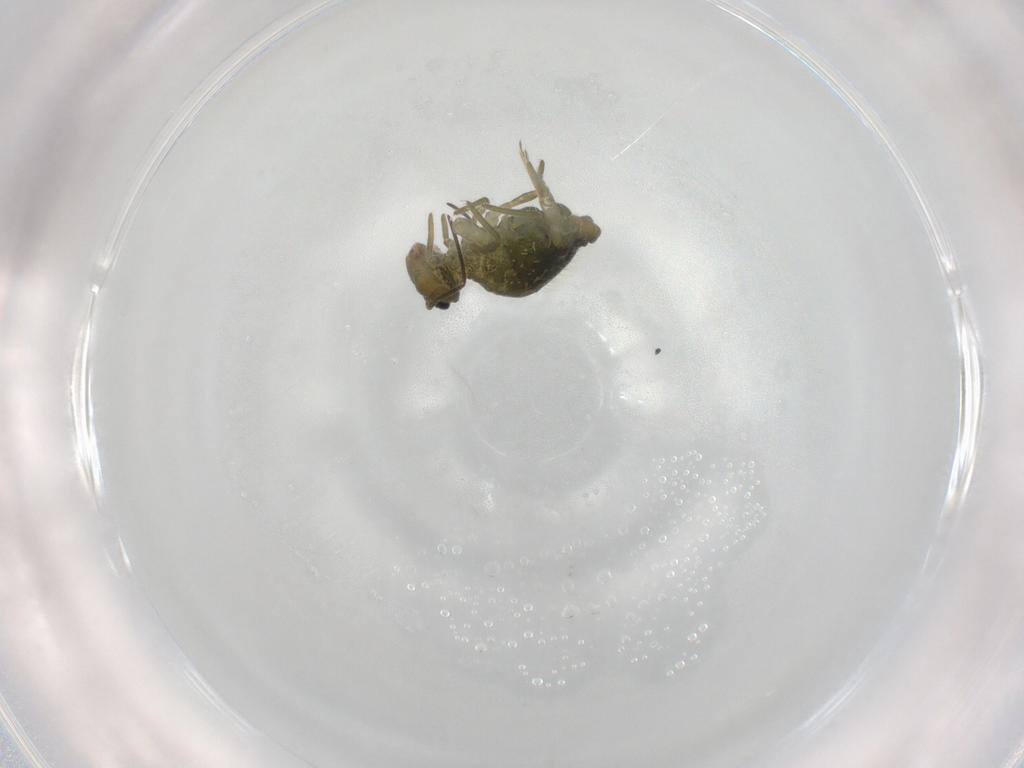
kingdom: Animalia
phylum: Arthropoda
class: Collembola
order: Symphypleona
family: Sminthuridae
